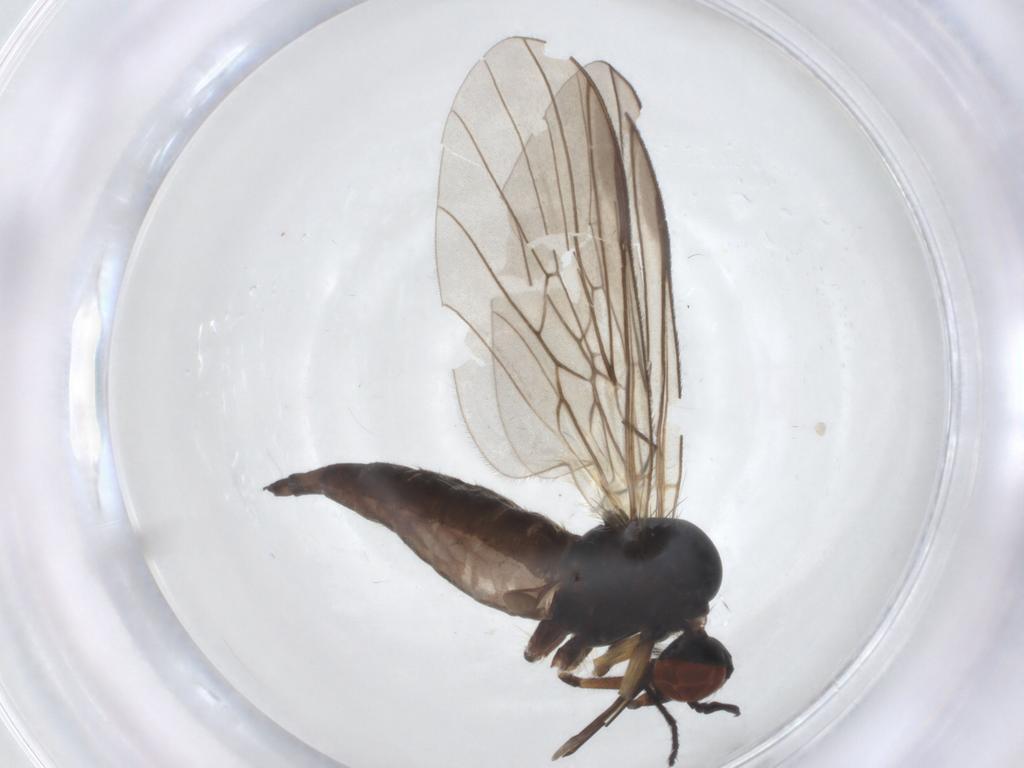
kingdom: Animalia
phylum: Arthropoda
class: Insecta
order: Diptera
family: Empididae
